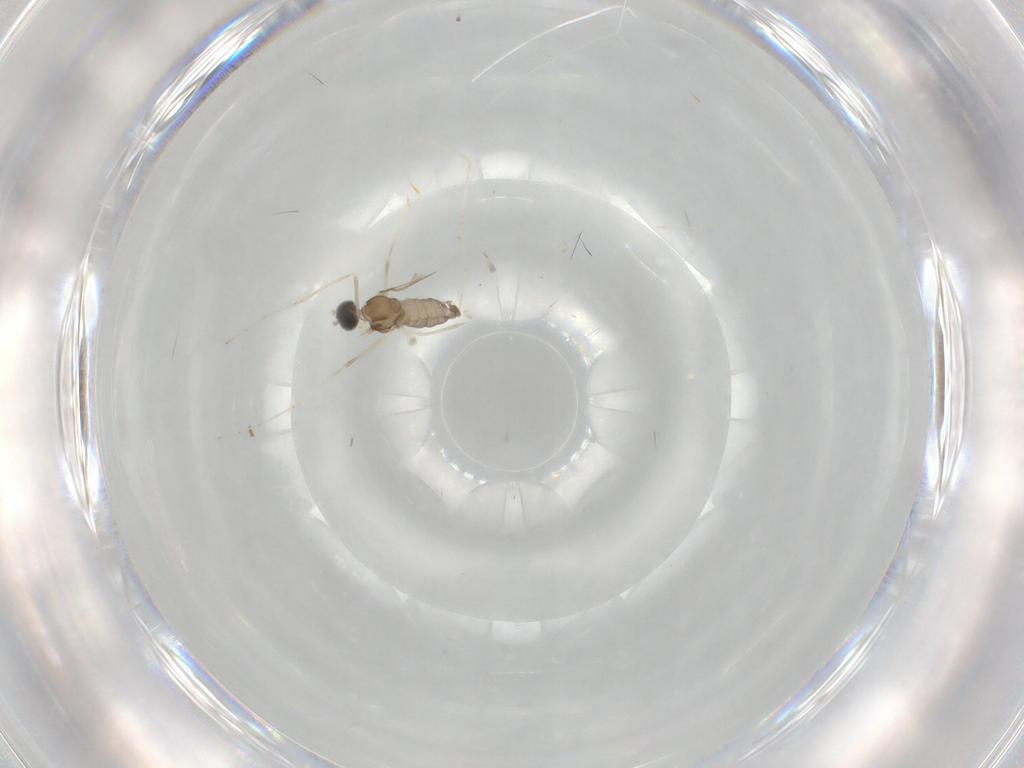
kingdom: Animalia
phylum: Arthropoda
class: Insecta
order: Diptera
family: Cecidomyiidae
